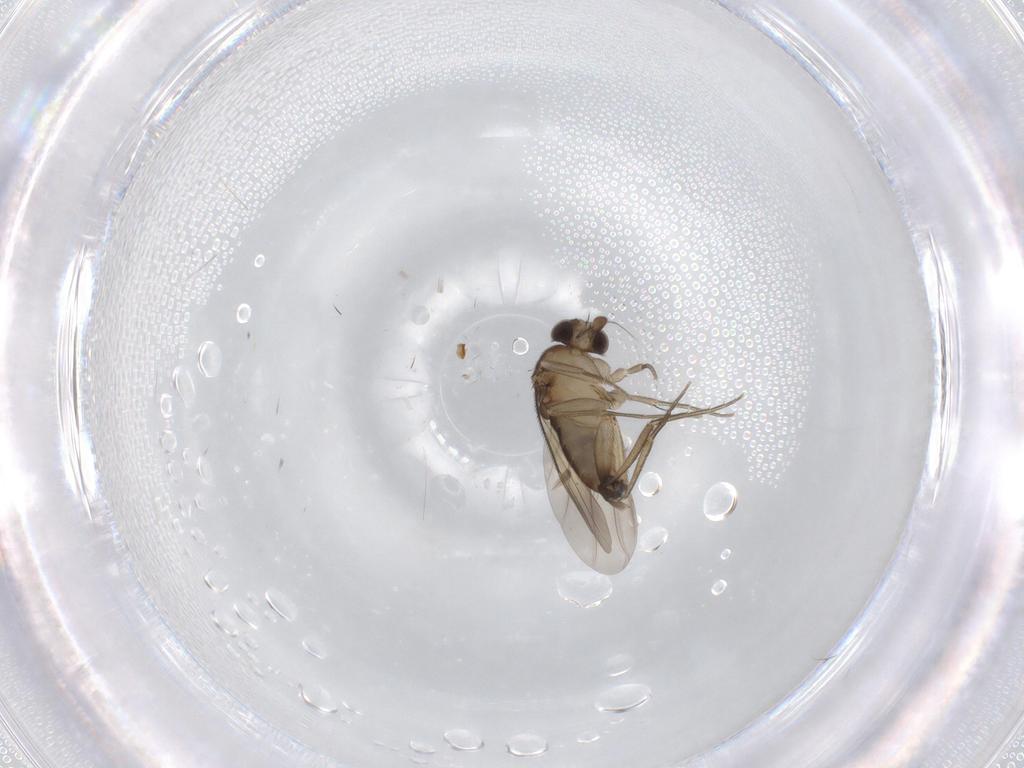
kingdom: Animalia
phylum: Arthropoda
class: Insecta
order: Diptera
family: Phoridae
